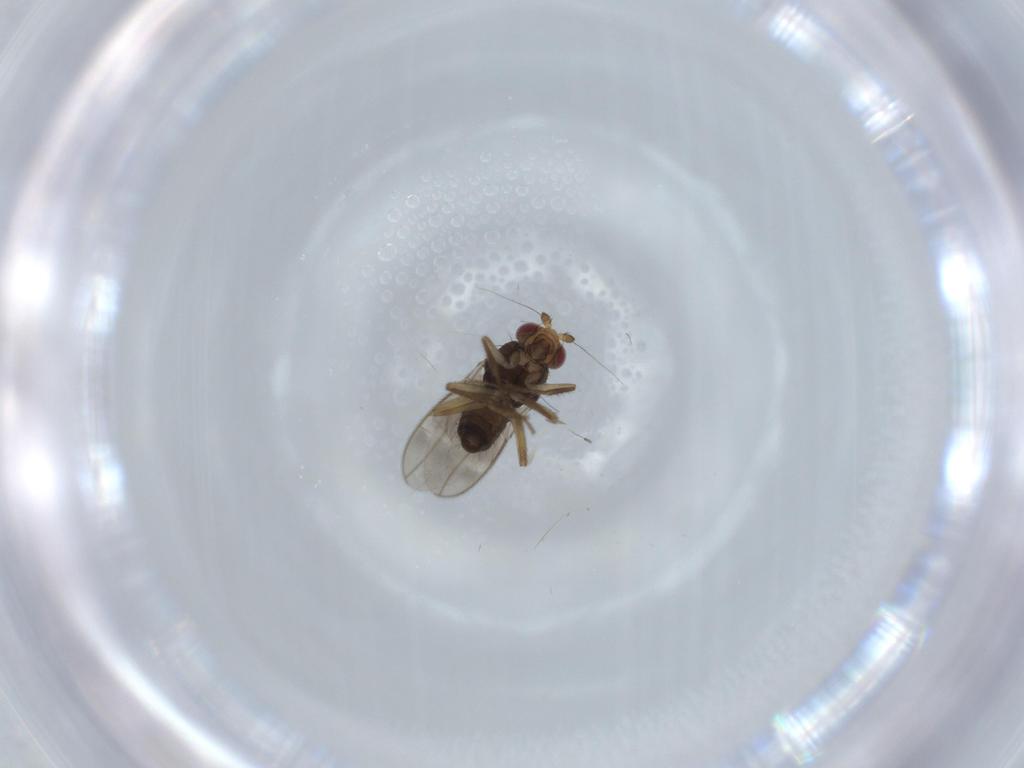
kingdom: Animalia
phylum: Arthropoda
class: Insecta
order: Diptera
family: Sphaeroceridae
